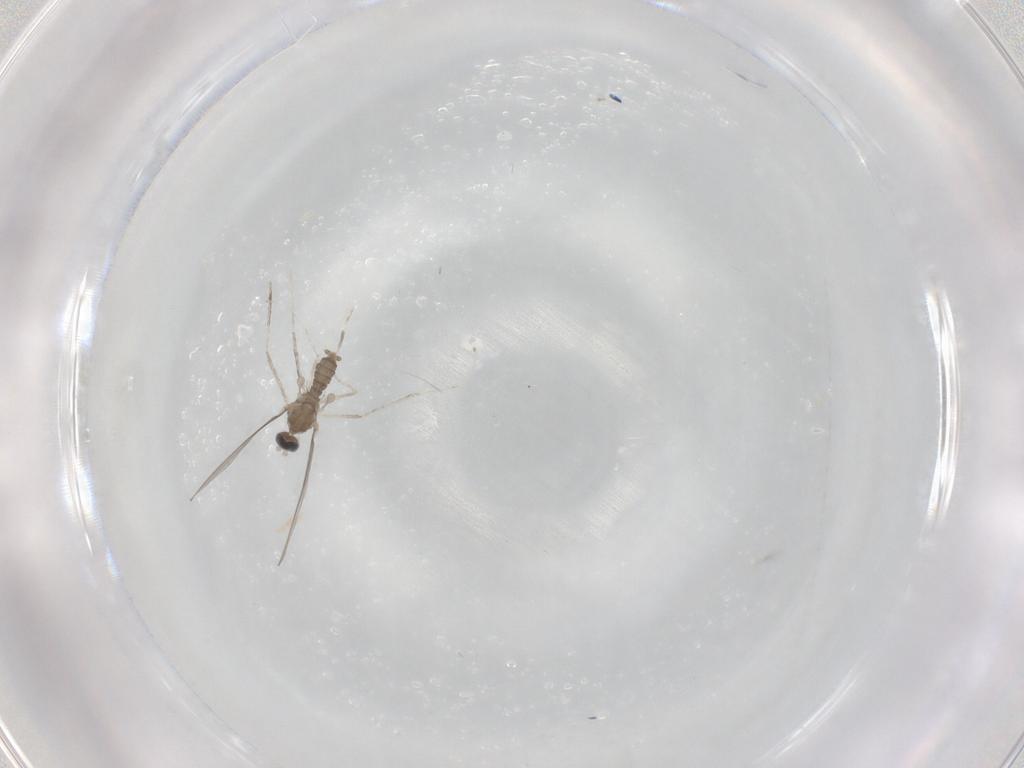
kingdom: Animalia
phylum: Arthropoda
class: Insecta
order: Diptera
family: Cecidomyiidae
